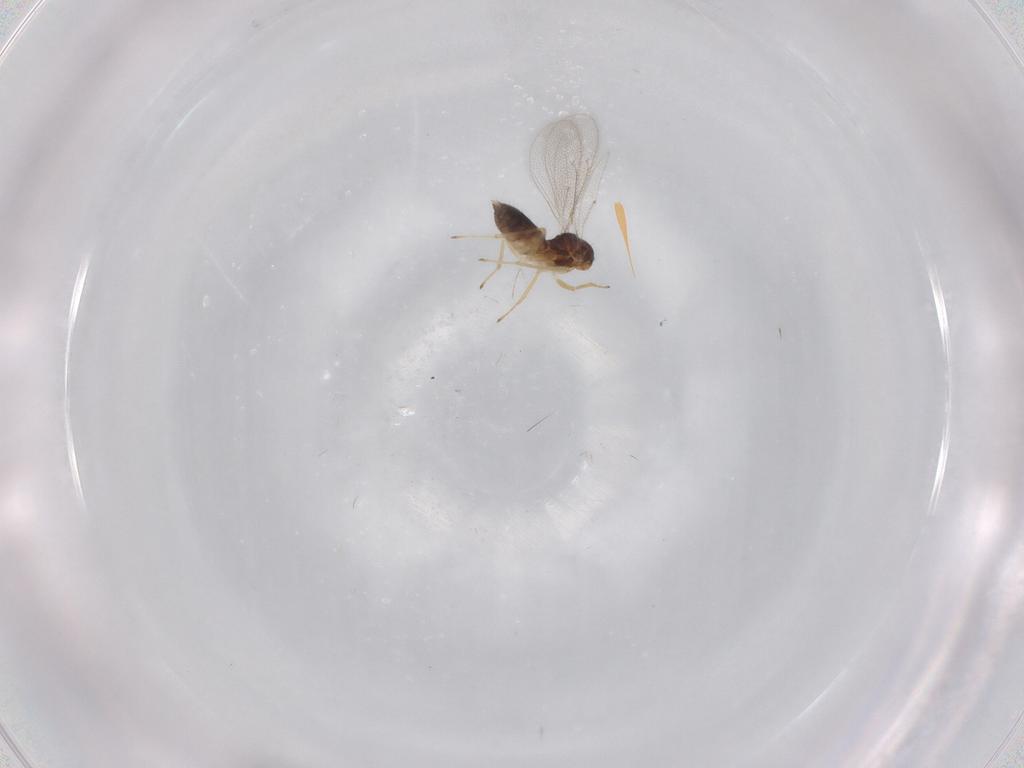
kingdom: Animalia
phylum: Arthropoda
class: Insecta
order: Hymenoptera
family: Eulophidae
